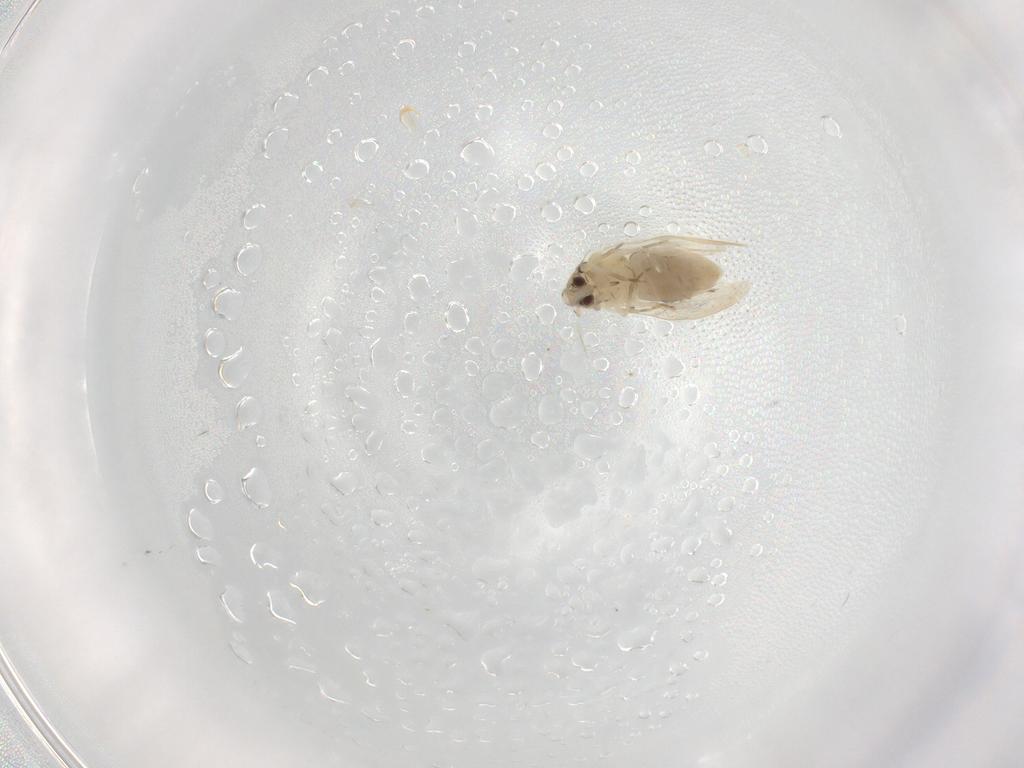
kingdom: Animalia
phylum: Arthropoda
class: Insecta
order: Hemiptera
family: Aleyrodidae
